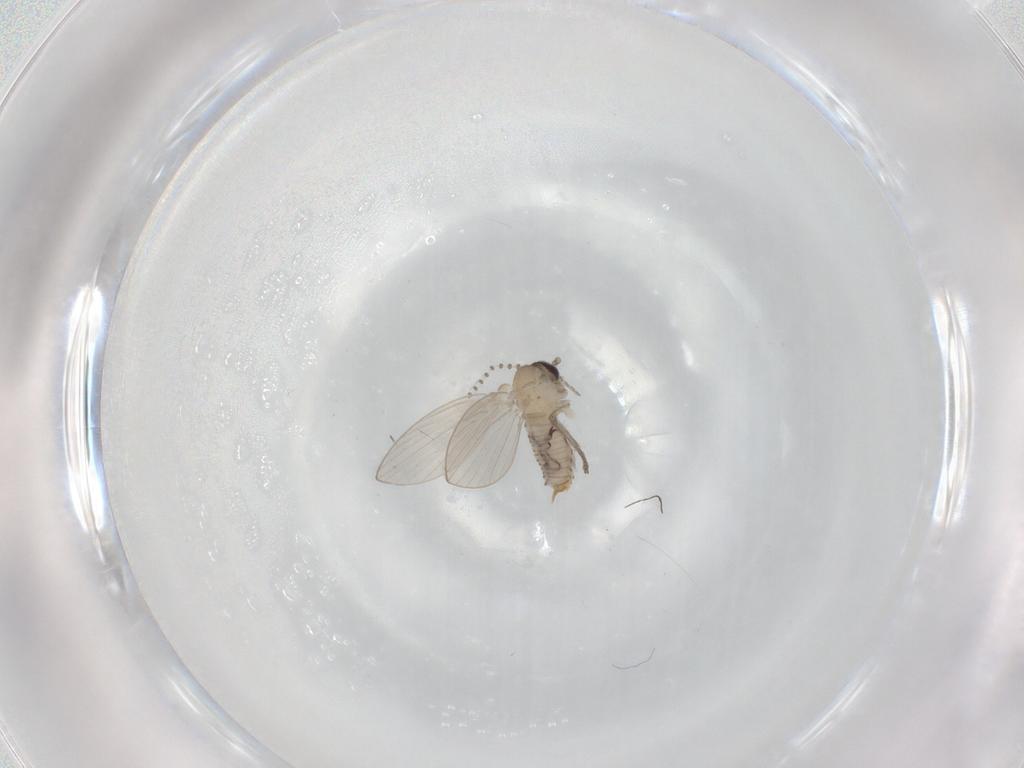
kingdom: Animalia
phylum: Arthropoda
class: Insecta
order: Diptera
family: Psychodidae
